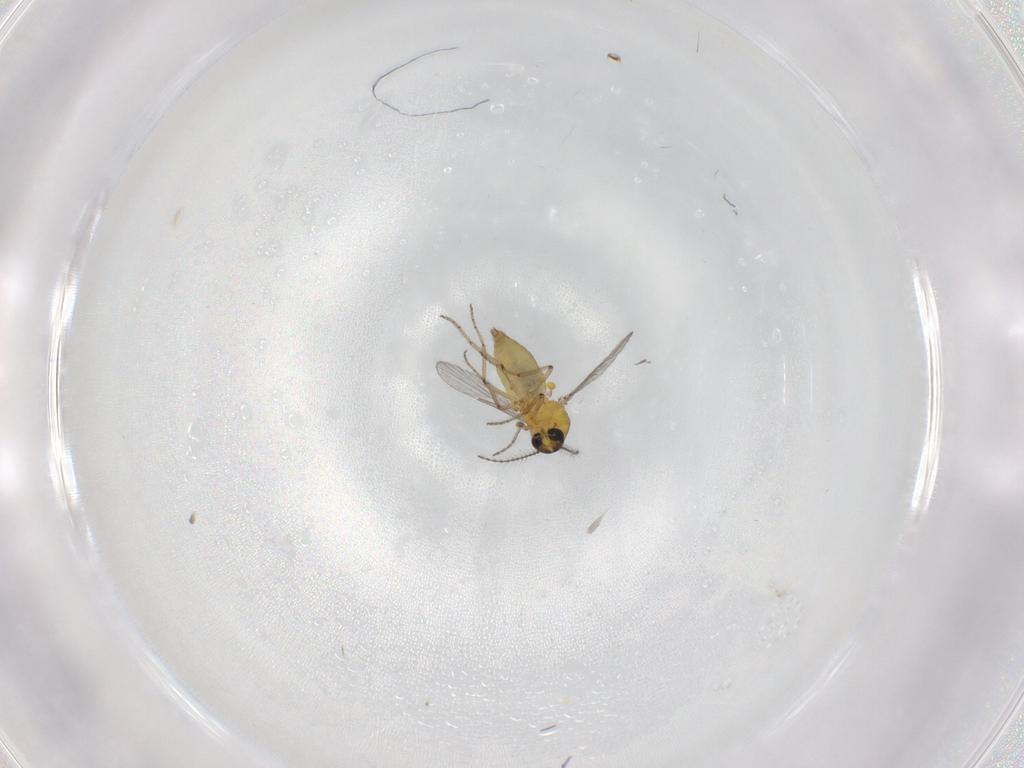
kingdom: Animalia
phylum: Arthropoda
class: Insecta
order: Diptera
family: Ceratopogonidae
